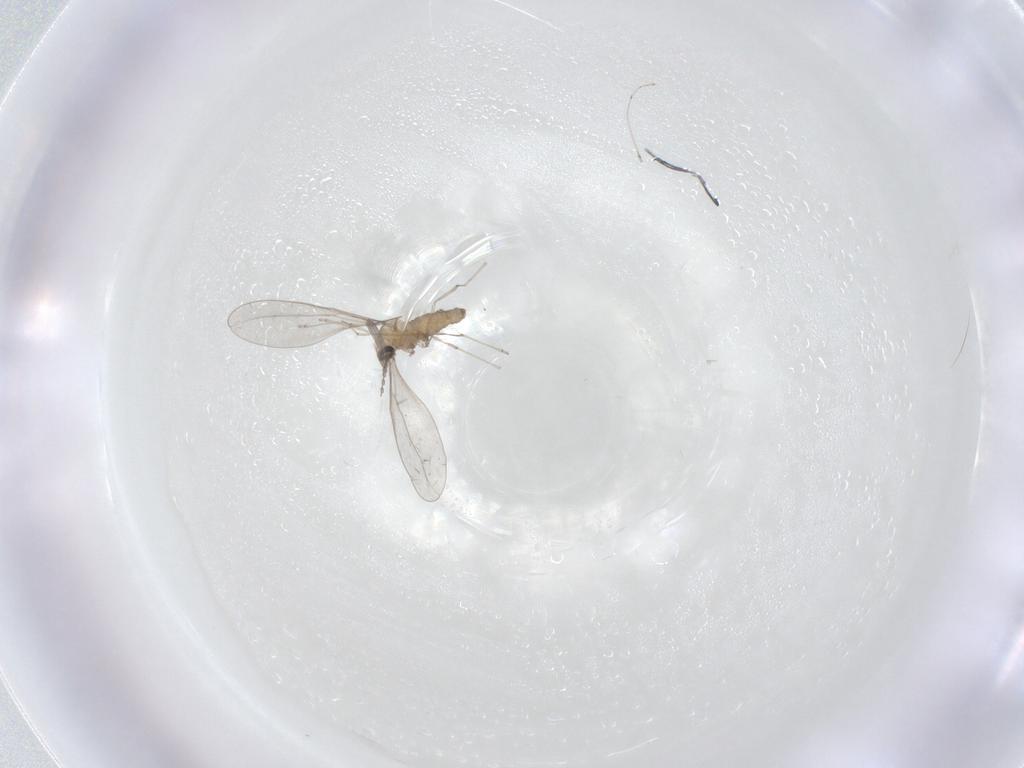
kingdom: Animalia
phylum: Arthropoda
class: Insecta
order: Diptera
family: Cecidomyiidae
